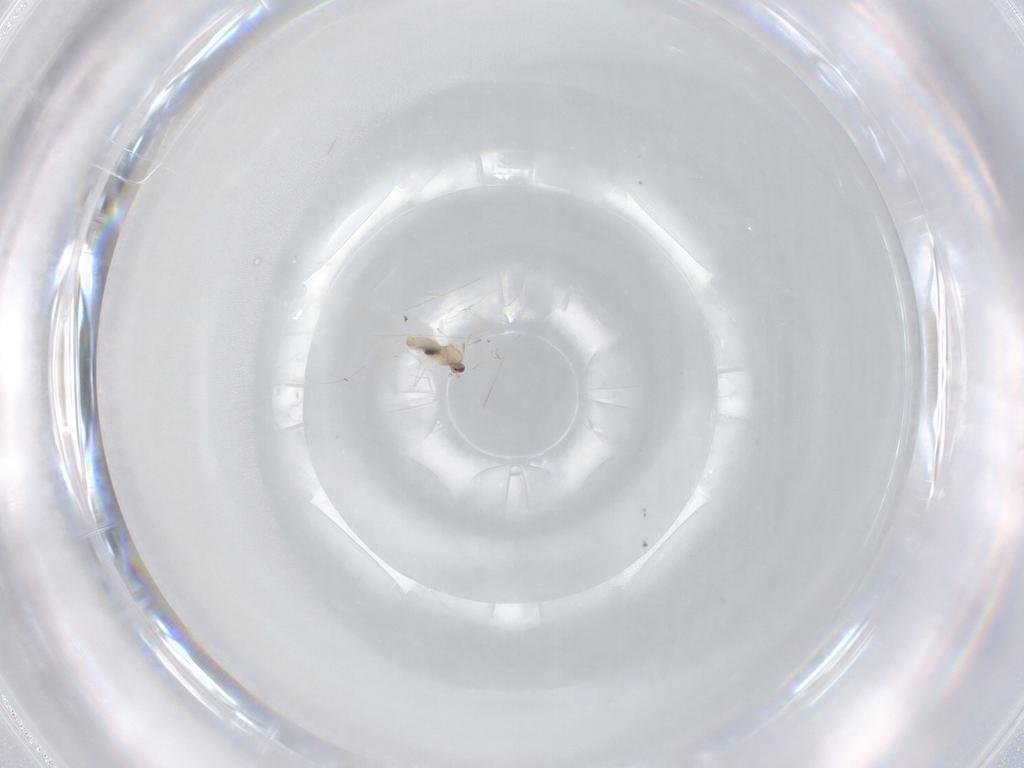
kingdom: Animalia
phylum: Arthropoda
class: Insecta
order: Diptera
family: Cecidomyiidae
